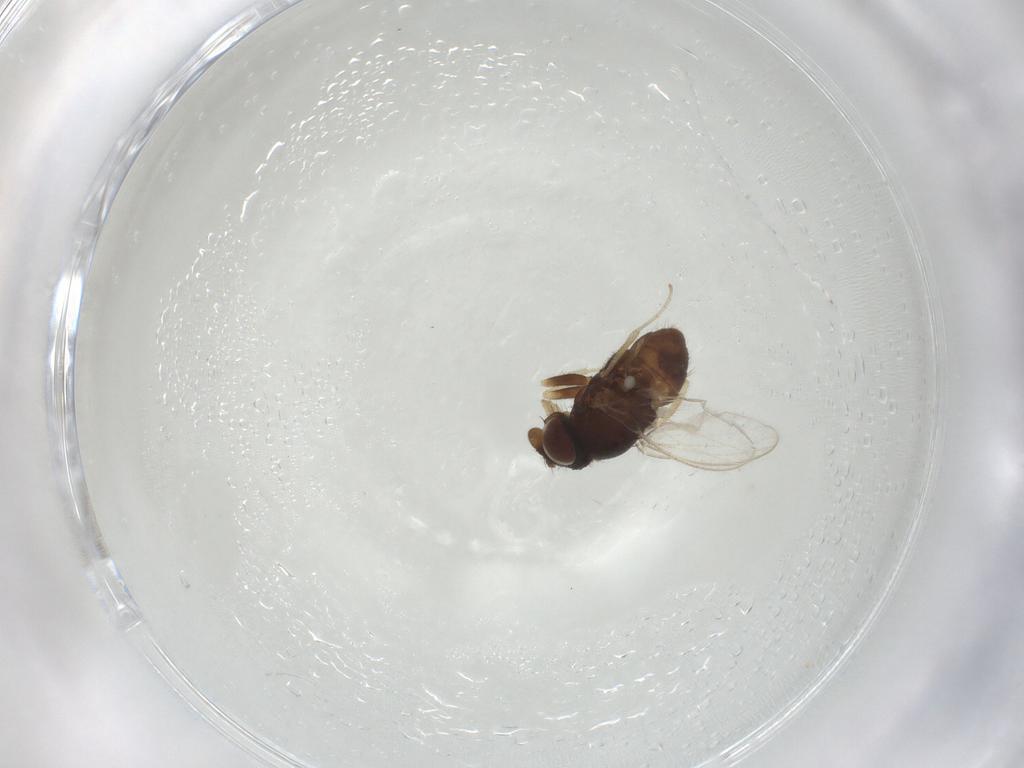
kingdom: Animalia
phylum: Arthropoda
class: Insecta
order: Diptera
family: Milichiidae
